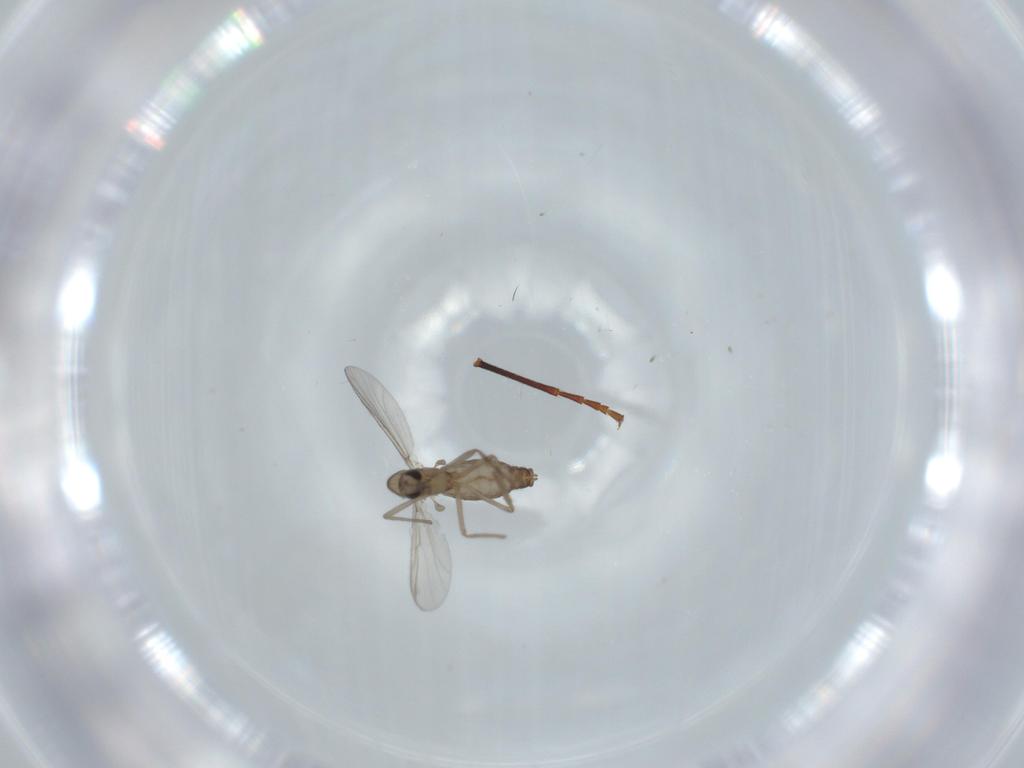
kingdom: Animalia
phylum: Arthropoda
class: Insecta
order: Diptera
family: Chironomidae
